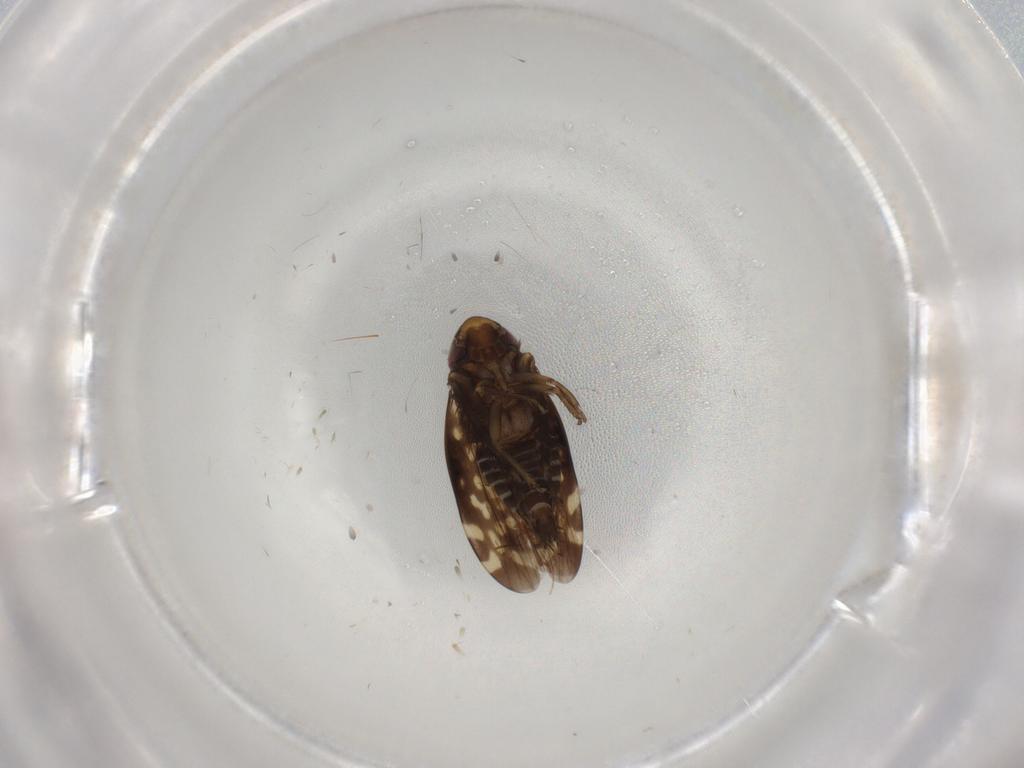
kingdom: Animalia
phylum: Arthropoda
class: Insecta
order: Hemiptera
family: Cicadellidae
